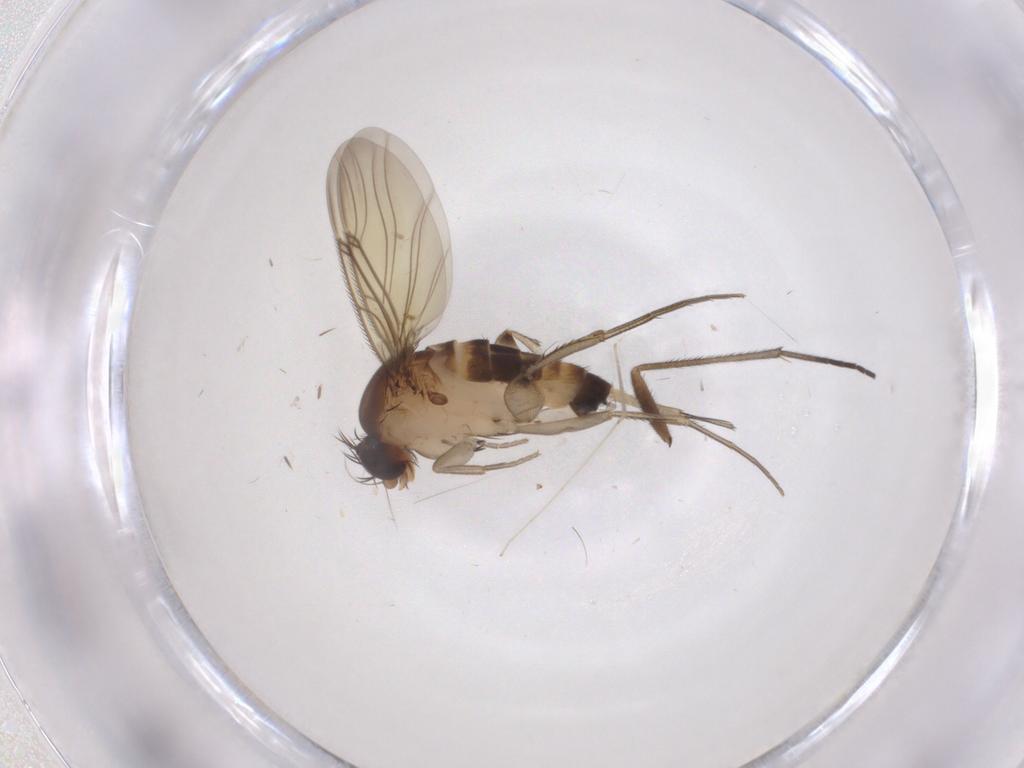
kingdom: Animalia
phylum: Arthropoda
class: Insecta
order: Diptera
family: Phoridae
